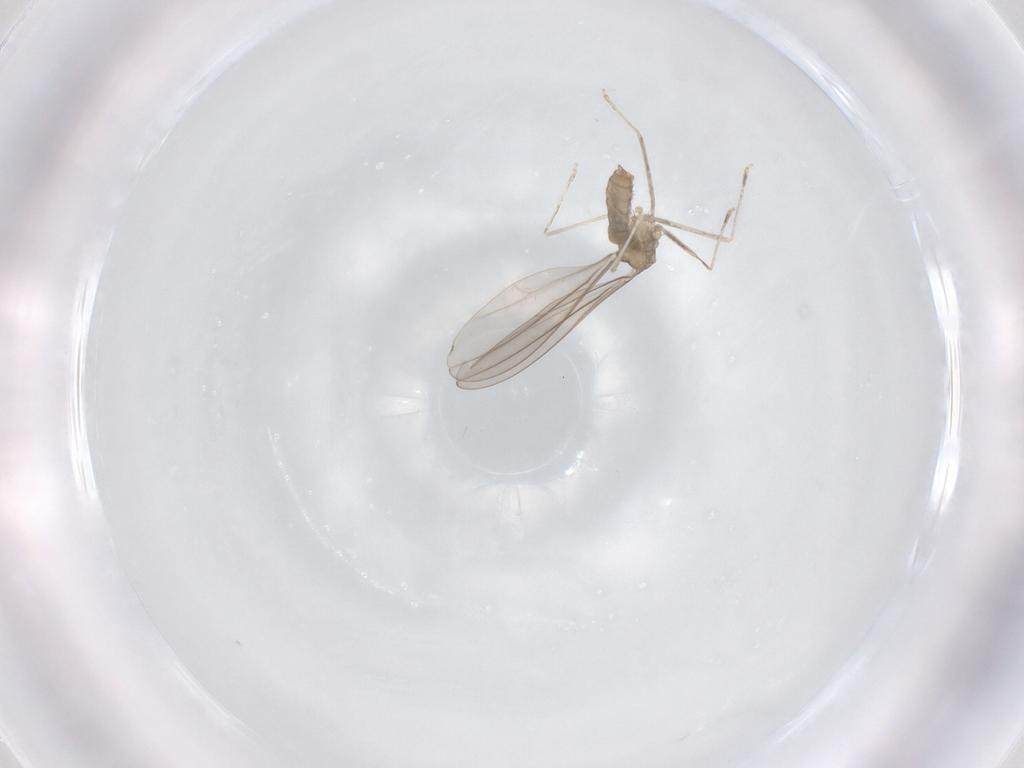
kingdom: Animalia
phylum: Arthropoda
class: Insecta
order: Diptera
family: Cecidomyiidae
